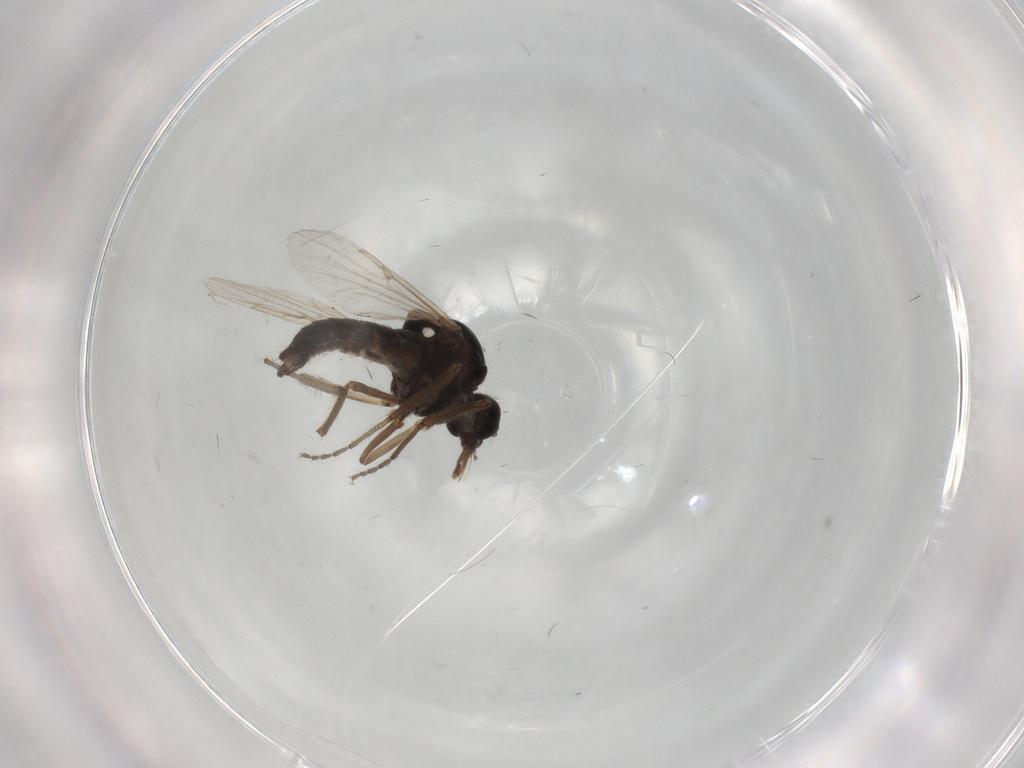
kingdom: Animalia
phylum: Arthropoda
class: Insecta
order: Diptera
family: Ceratopogonidae
